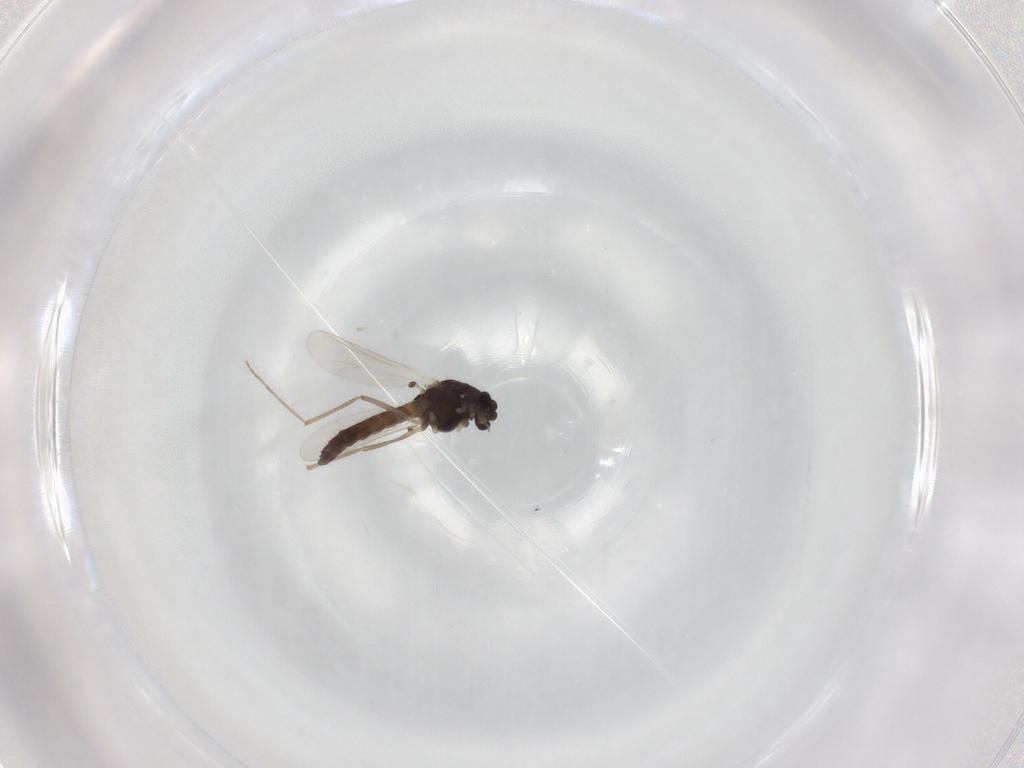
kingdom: Animalia
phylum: Arthropoda
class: Insecta
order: Diptera
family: Chironomidae
